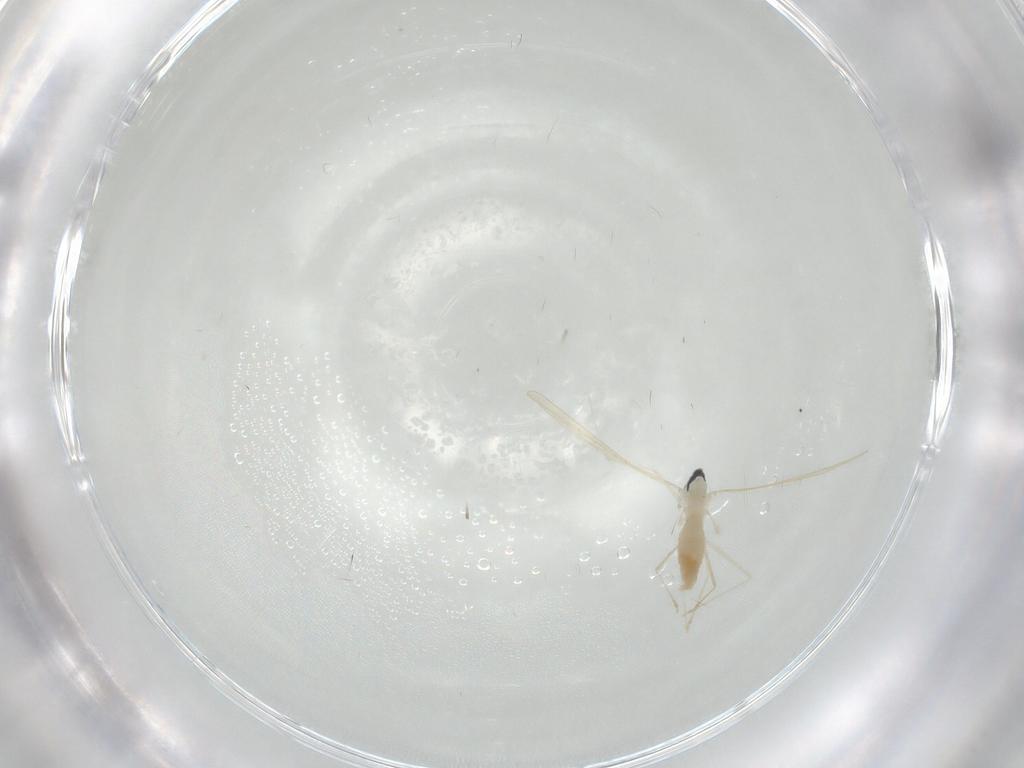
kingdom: Animalia
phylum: Arthropoda
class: Insecta
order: Diptera
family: Cecidomyiidae
